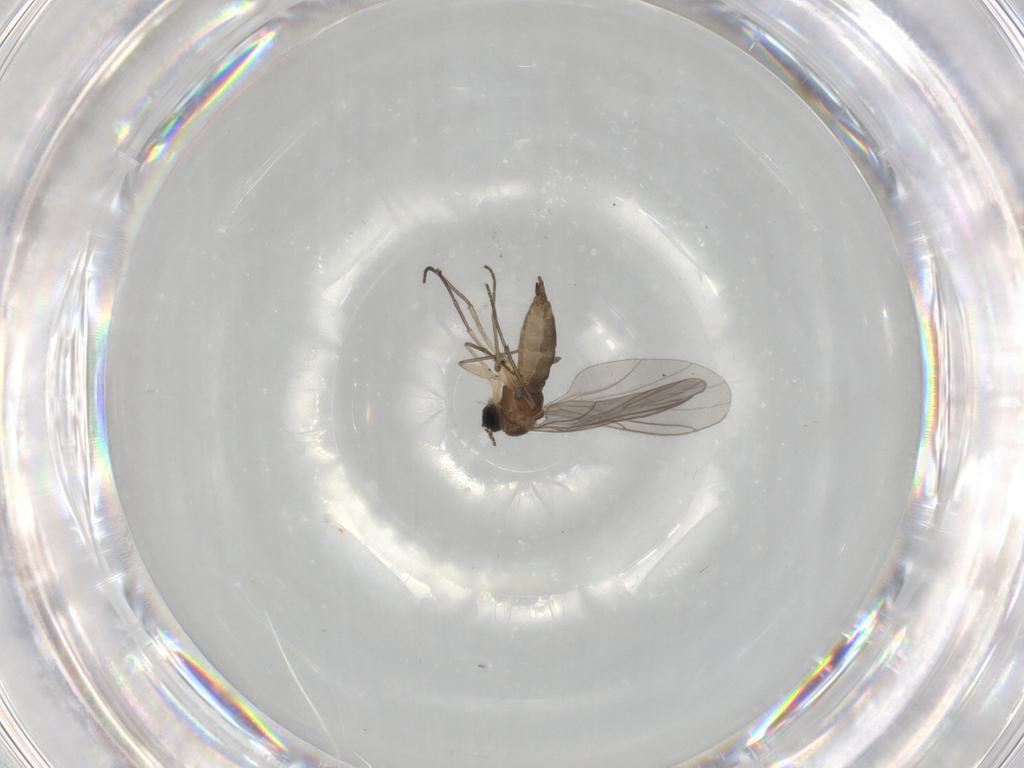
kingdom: Animalia
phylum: Arthropoda
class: Insecta
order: Diptera
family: Sciaridae
